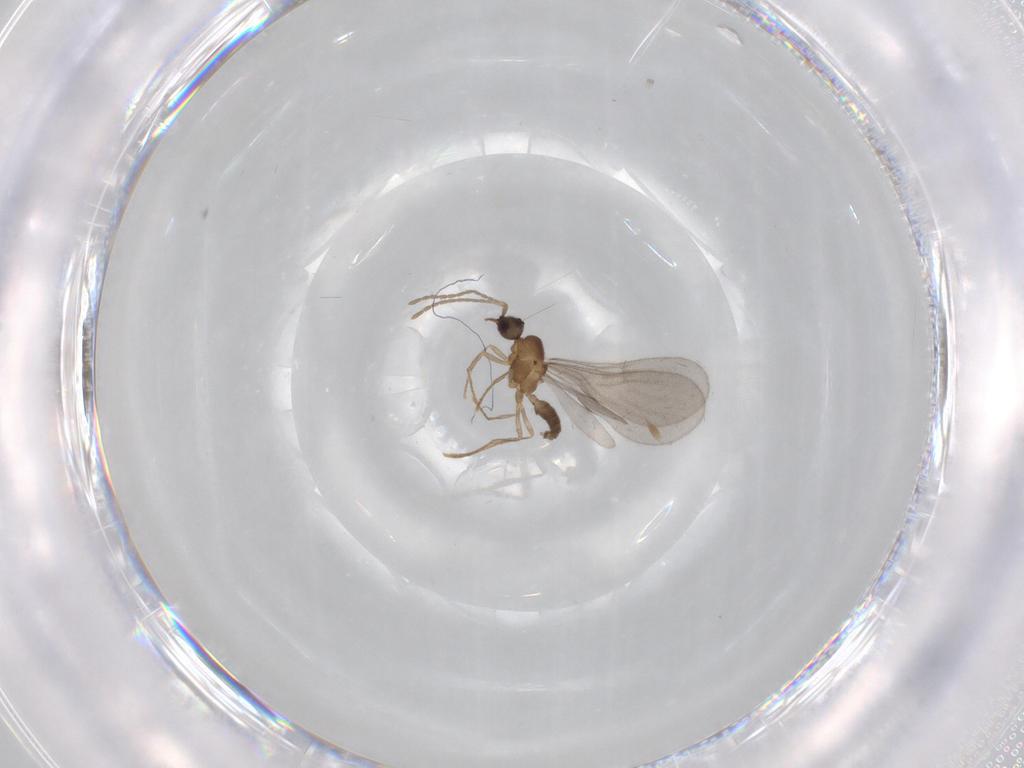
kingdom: Animalia
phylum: Arthropoda
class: Insecta
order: Hymenoptera
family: Formicidae
